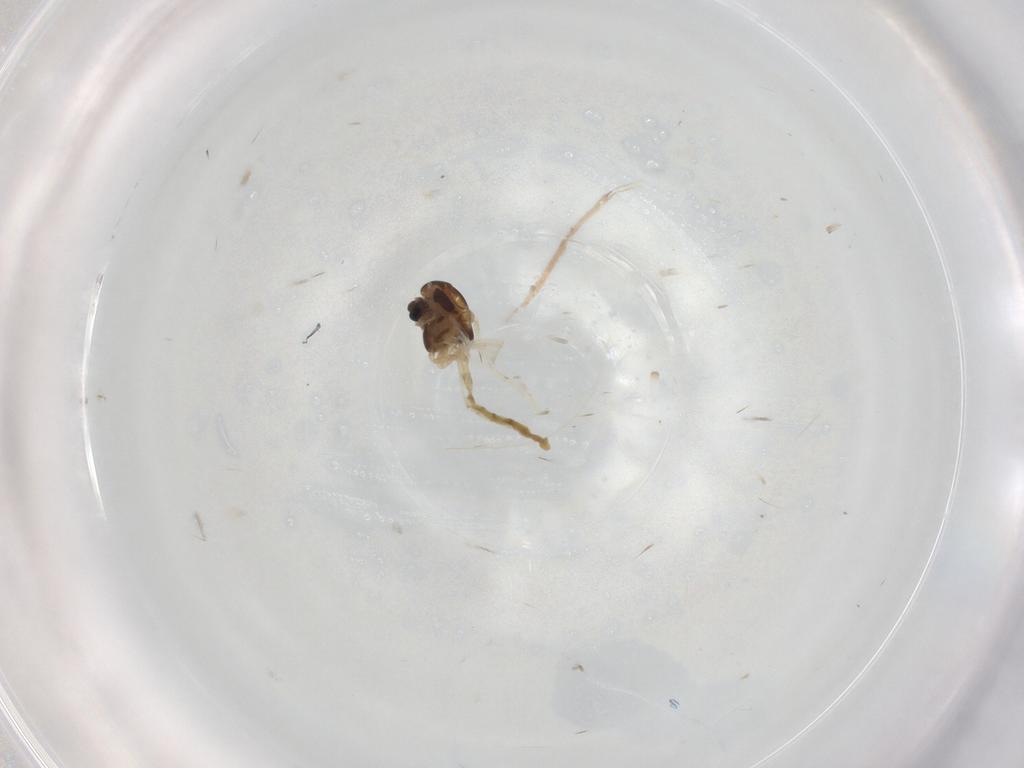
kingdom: Animalia
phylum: Arthropoda
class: Insecta
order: Diptera
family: Chironomidae
